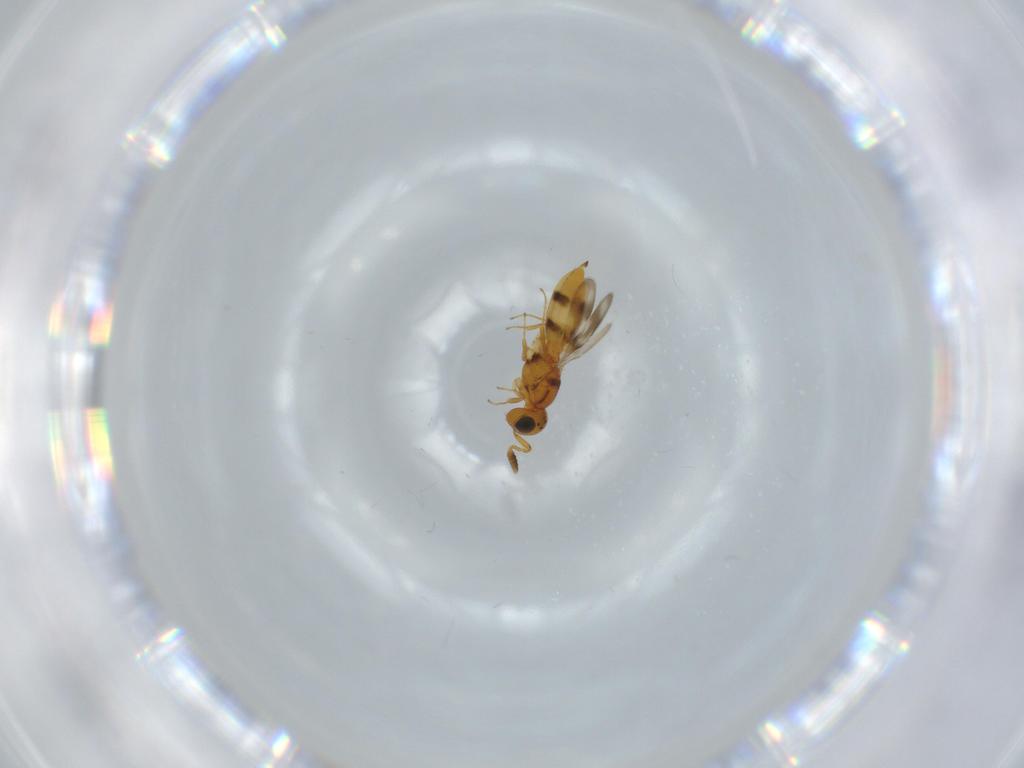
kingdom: Animalia
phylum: Arthropoda
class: Insecta
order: Hymenoptera
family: Scelionidae
